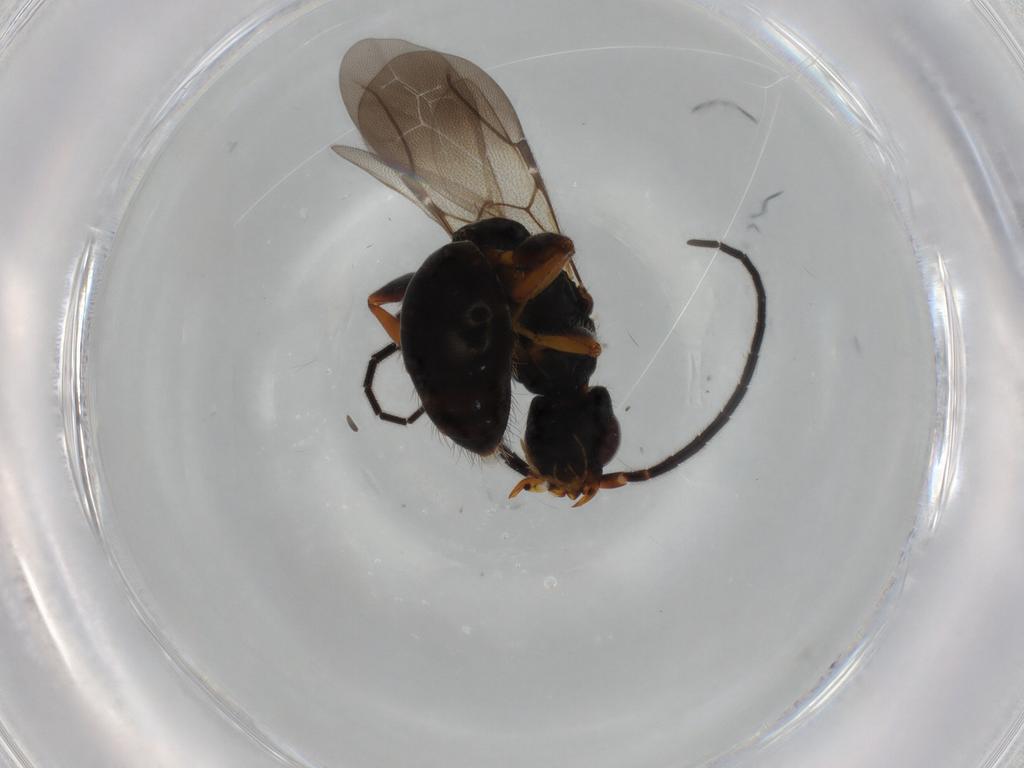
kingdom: Animalia
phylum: Arthropoda
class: Insecta
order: Hymenoptera
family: Bethylidae
